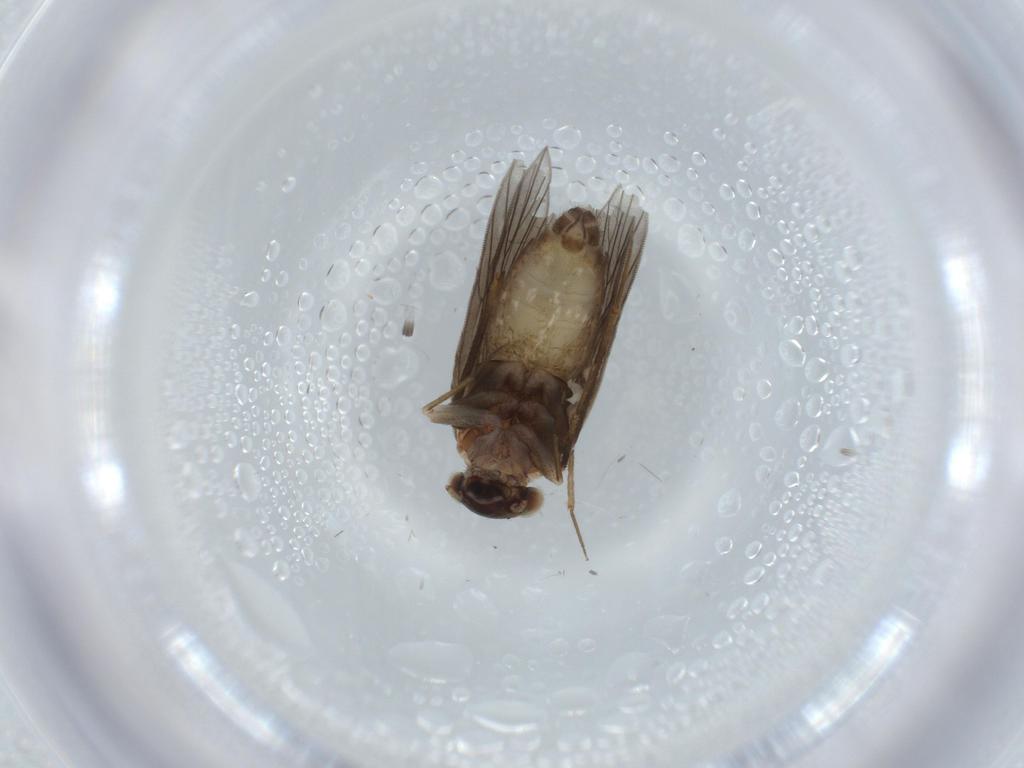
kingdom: Animalia
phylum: Arthropoda
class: Insecta
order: Psocodea
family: Lepidopsocidae
